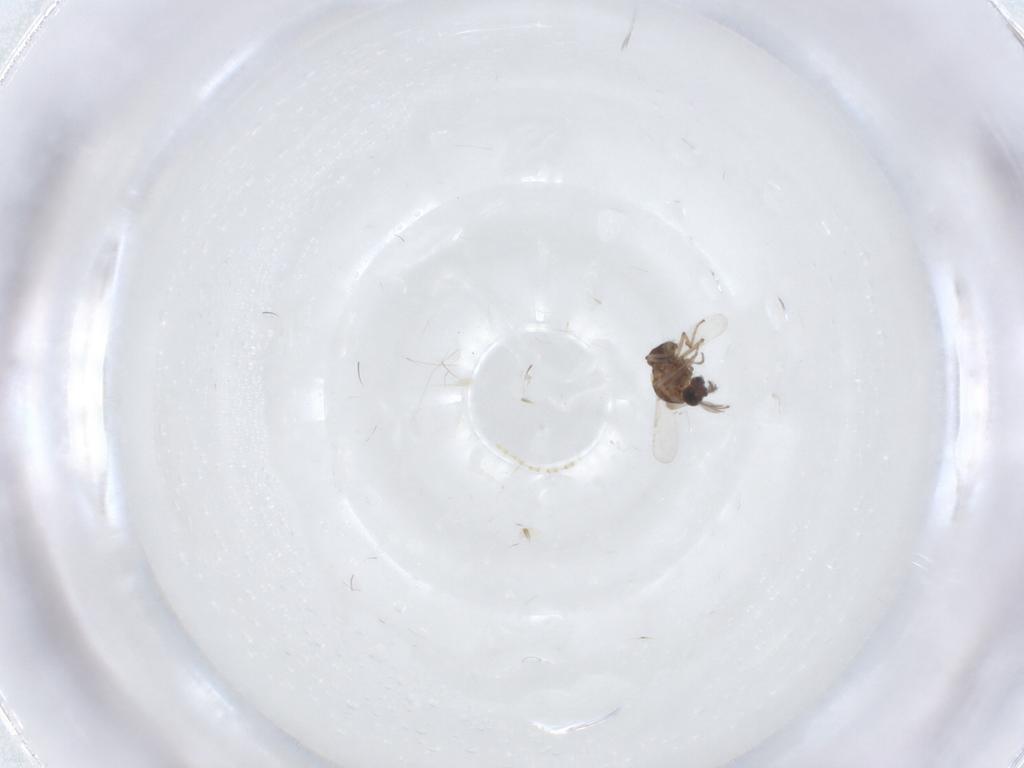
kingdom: Animalia
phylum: Arthropoda
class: Insecta
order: Diptera
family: Ceratopogonidae
